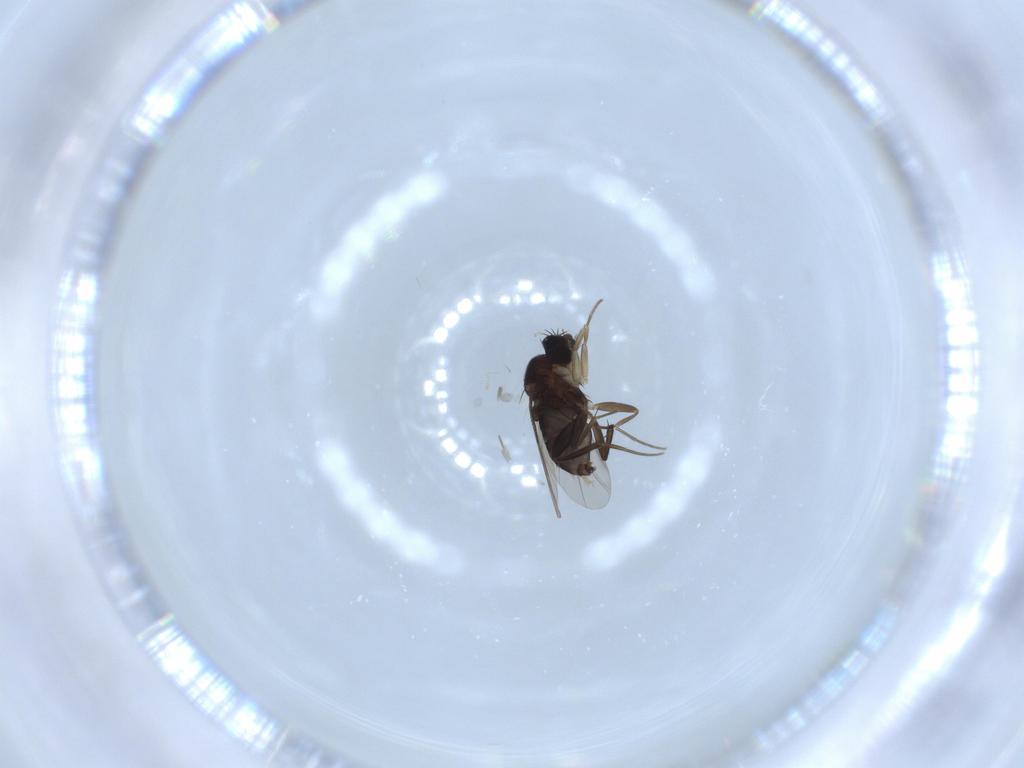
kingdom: Animalia
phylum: Arthropoda
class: Insecta
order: Diptera
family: Phoridae
